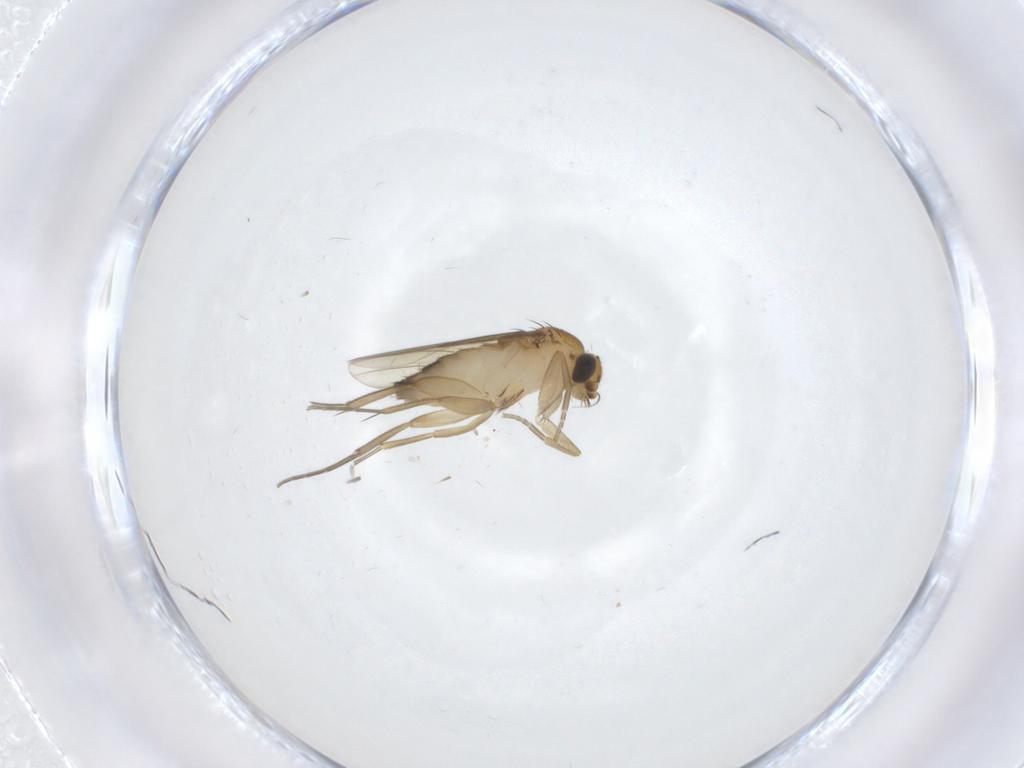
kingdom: Animalia
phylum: Arthropoda
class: Insecta
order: Diptera
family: Phoridae
